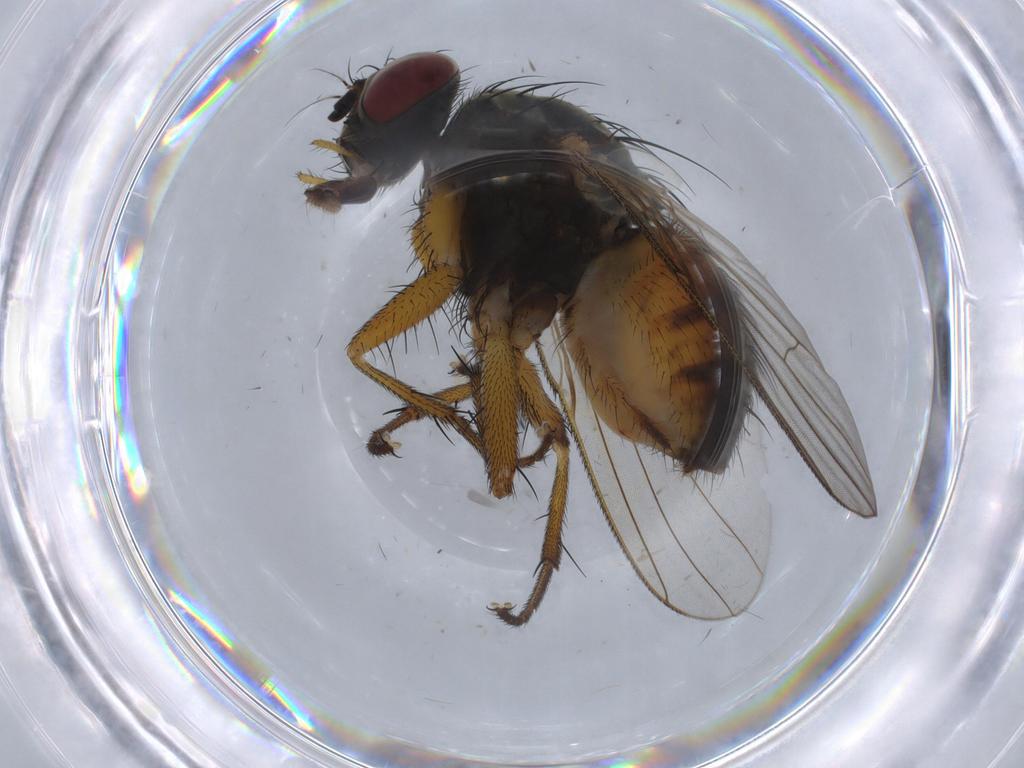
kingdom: Animalia
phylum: Arthropoda
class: Insecta
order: Diptera
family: Muscidae
